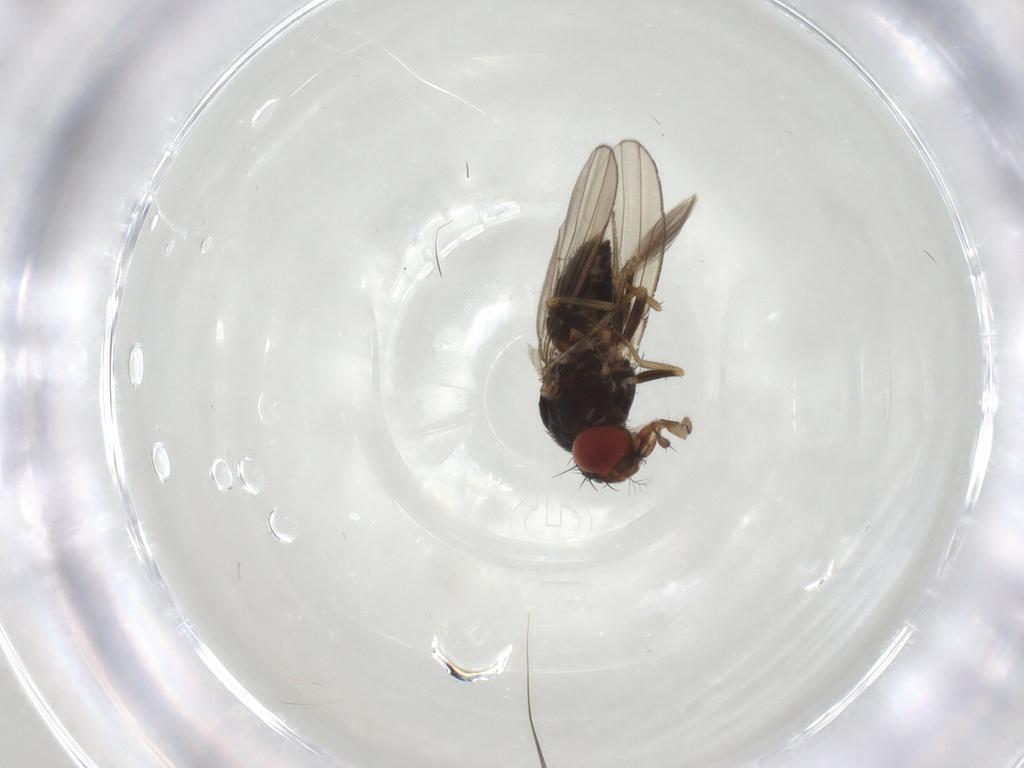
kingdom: Animalia
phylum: Arthropoda
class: Insecta
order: Diptera
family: Drosophilidae
